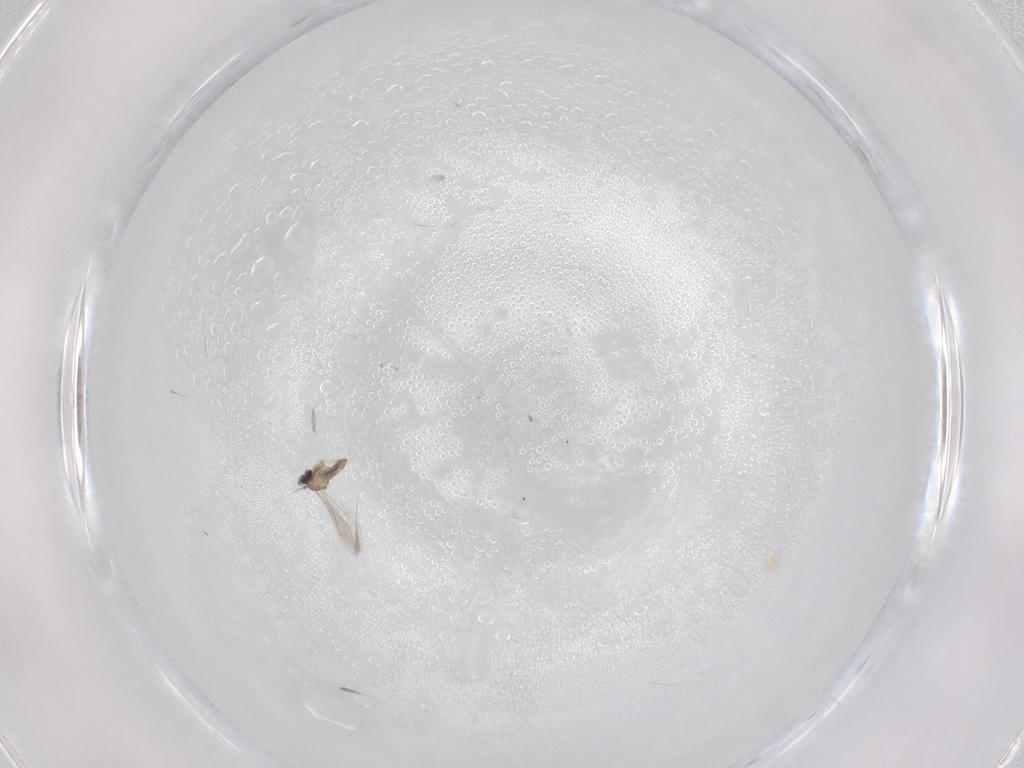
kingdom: Animalia
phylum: Arthropoda
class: Insecta
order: Diptera
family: Cecidomyiidae
